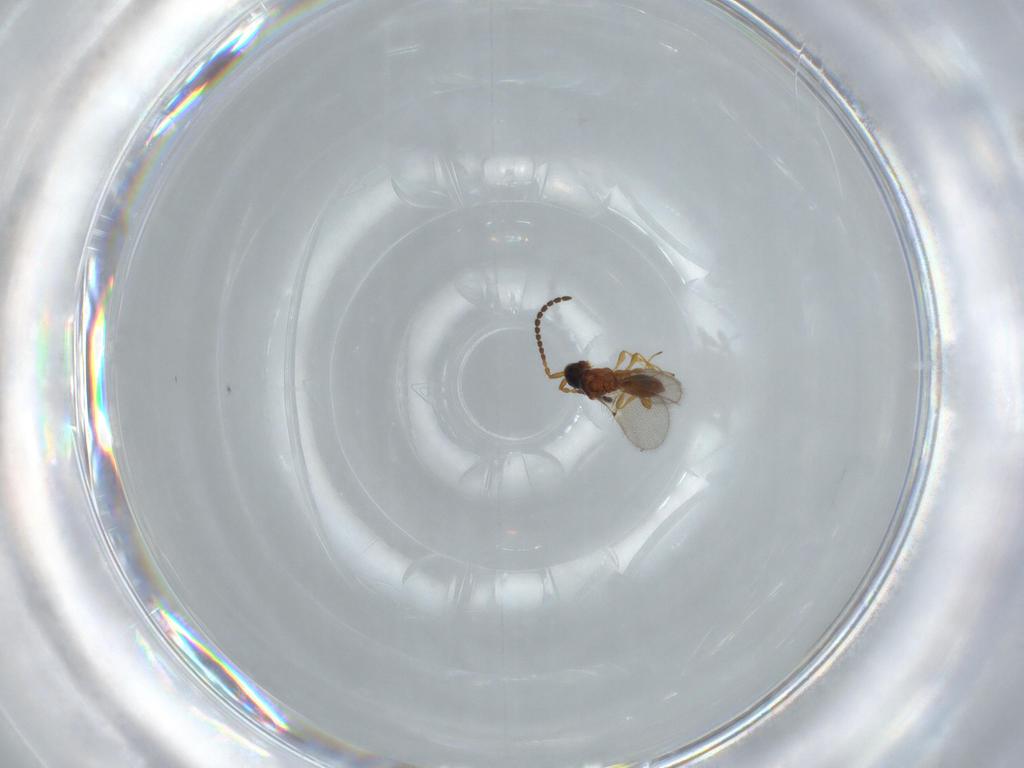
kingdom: Animalia
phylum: Arthropoda
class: Insecta
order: Hymenoptera
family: Diapriidae
